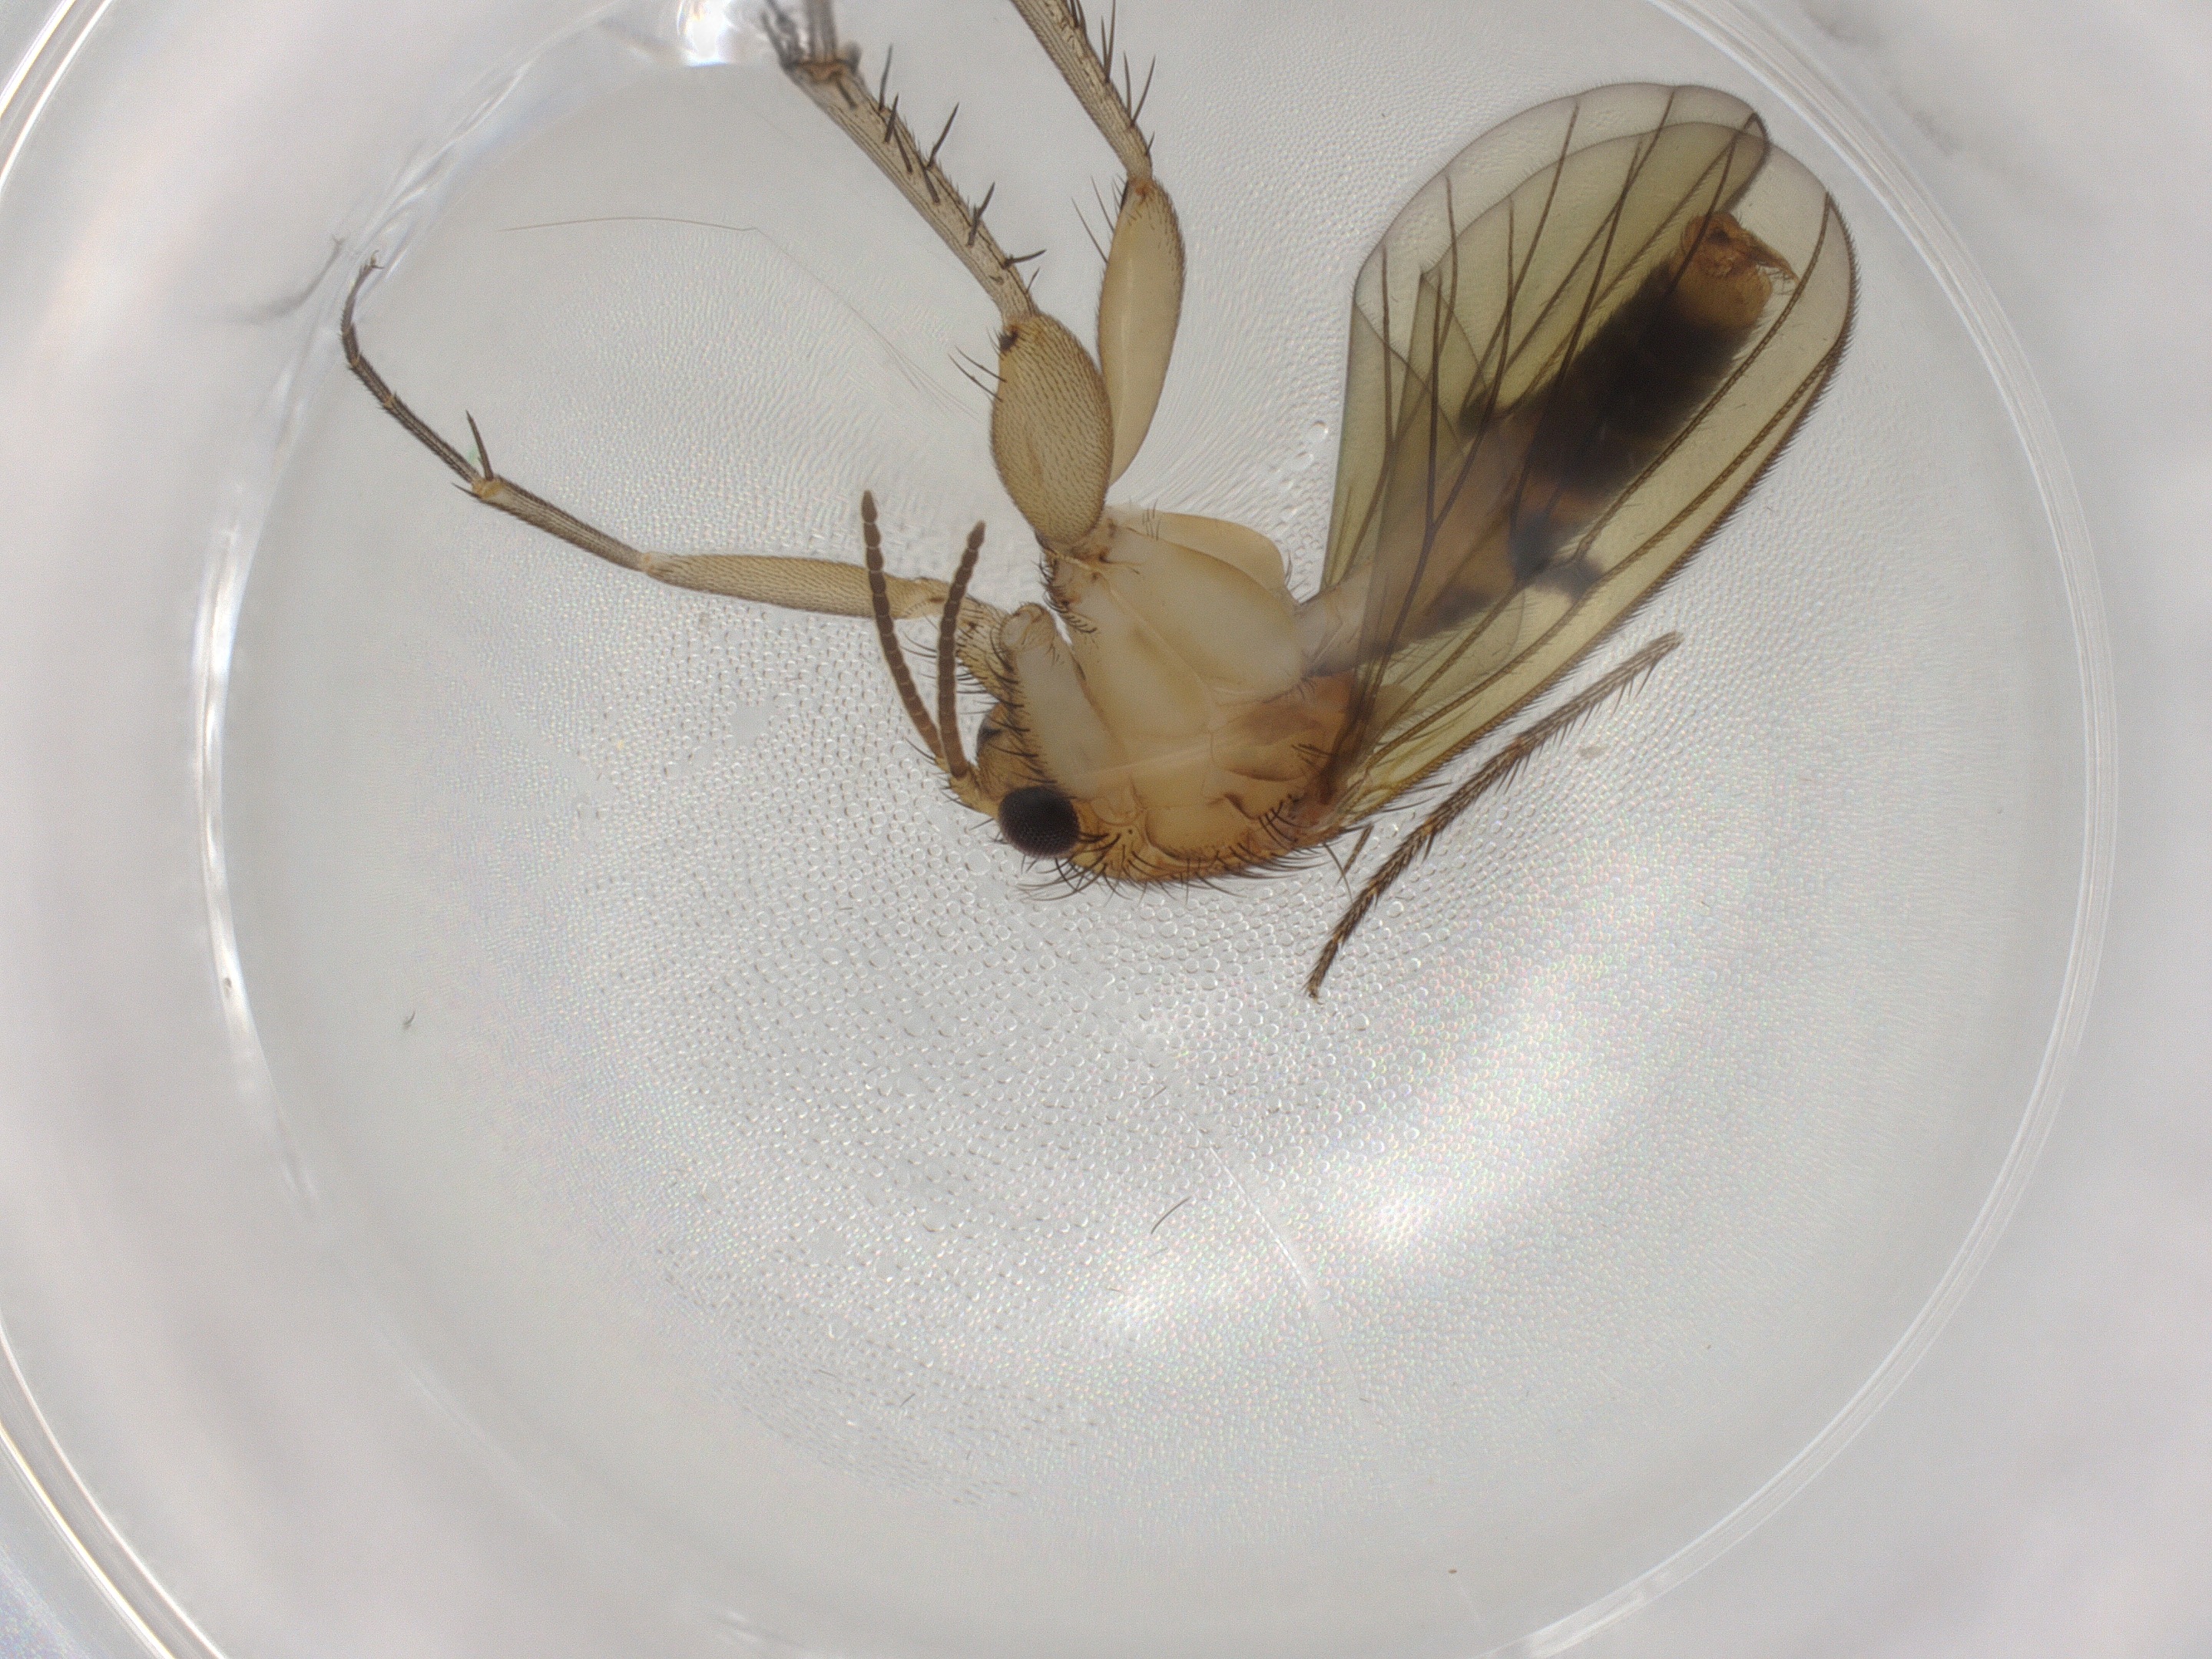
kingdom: Animalia
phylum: Arthropoda
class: Insecta
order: Diptera
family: Mycetophilidae
